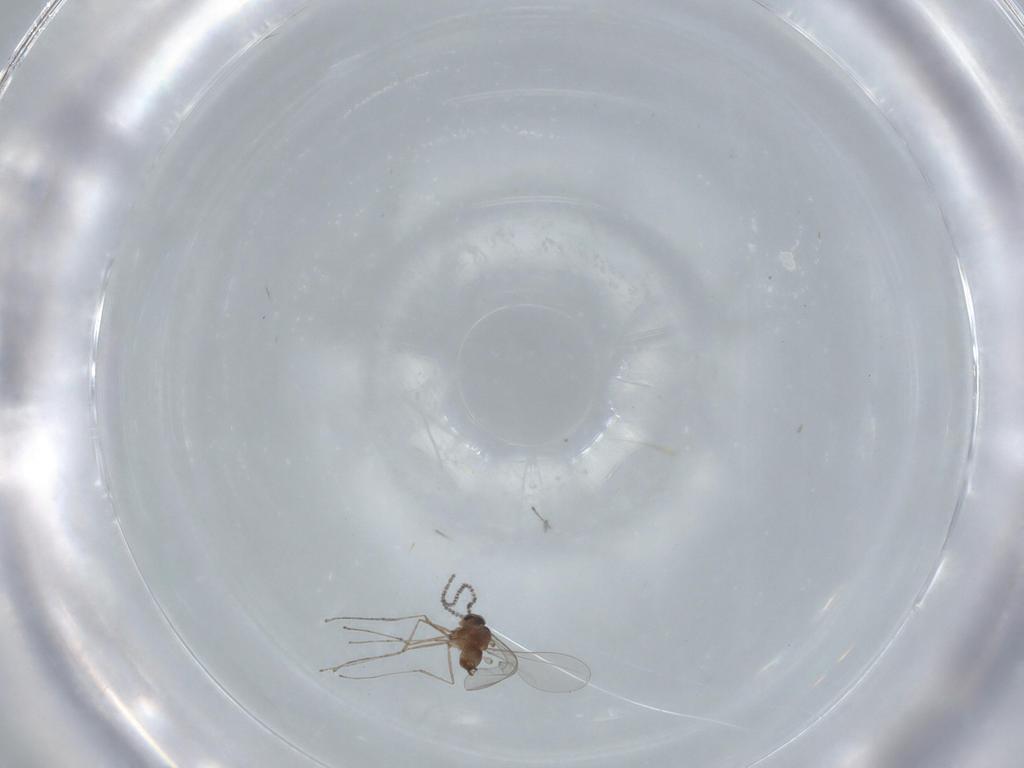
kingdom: Animalia
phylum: Arthropoda
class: Insecta
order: Diptera
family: Cecidomyiidae
